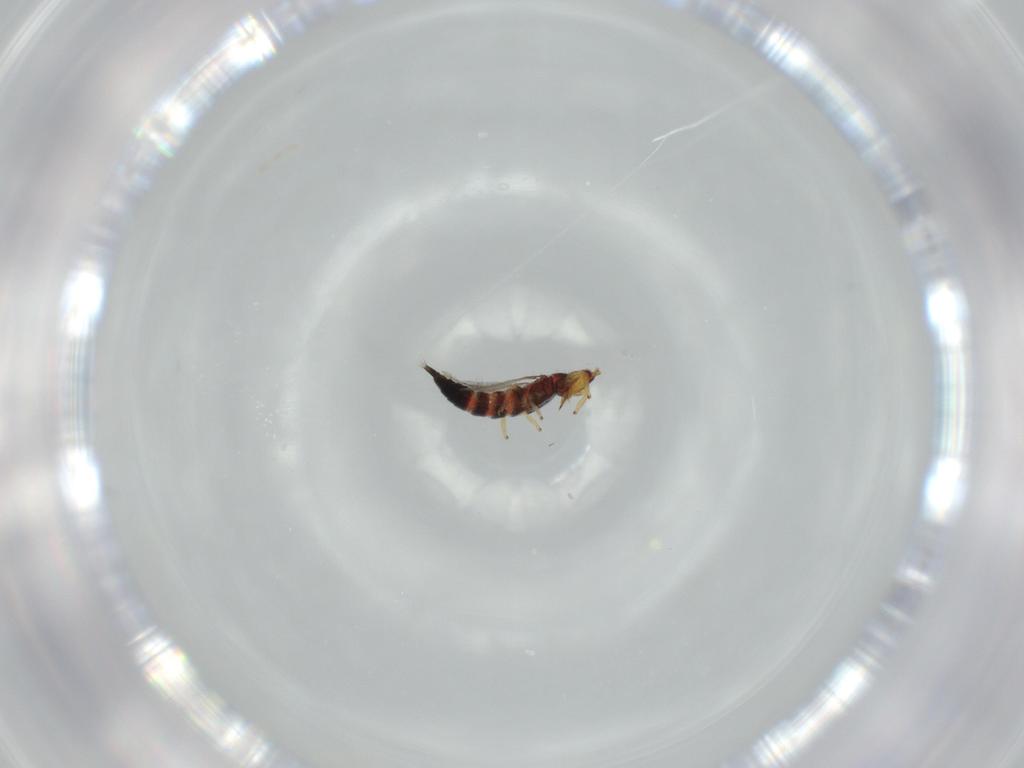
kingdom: Animalia
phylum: Arthropoda
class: Insecta
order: Thysanoptera
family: Phlaeothripidae
